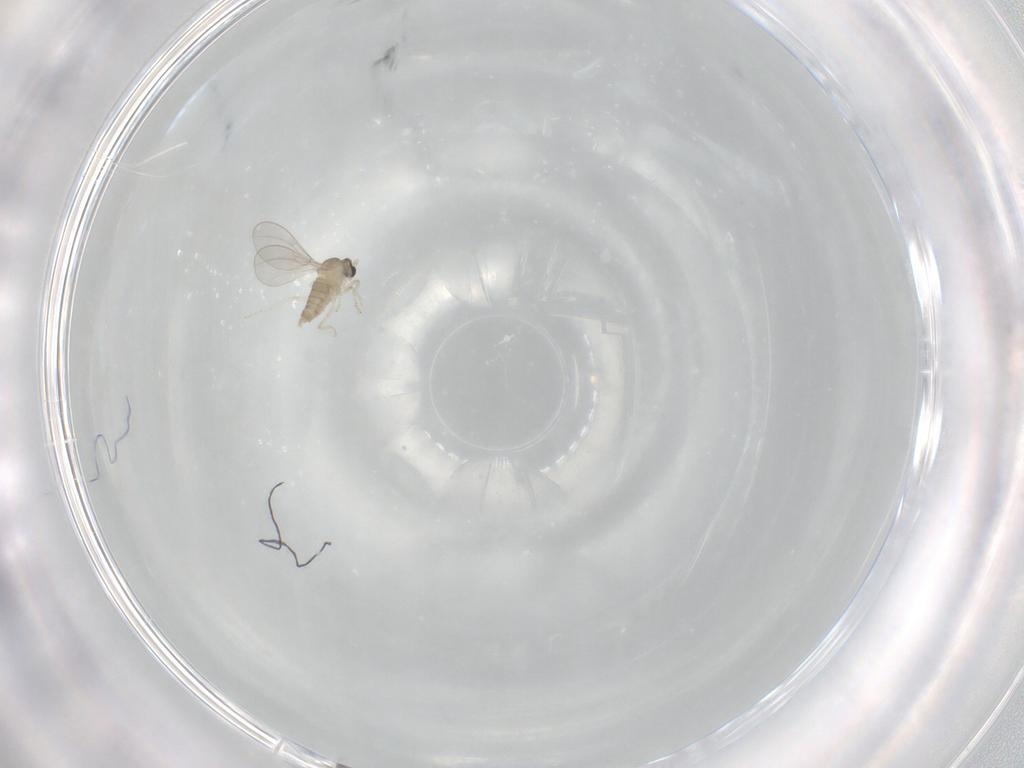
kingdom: Animalia
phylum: Arthropoda
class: Insecta
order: Diptera
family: Cecidomyiidae
